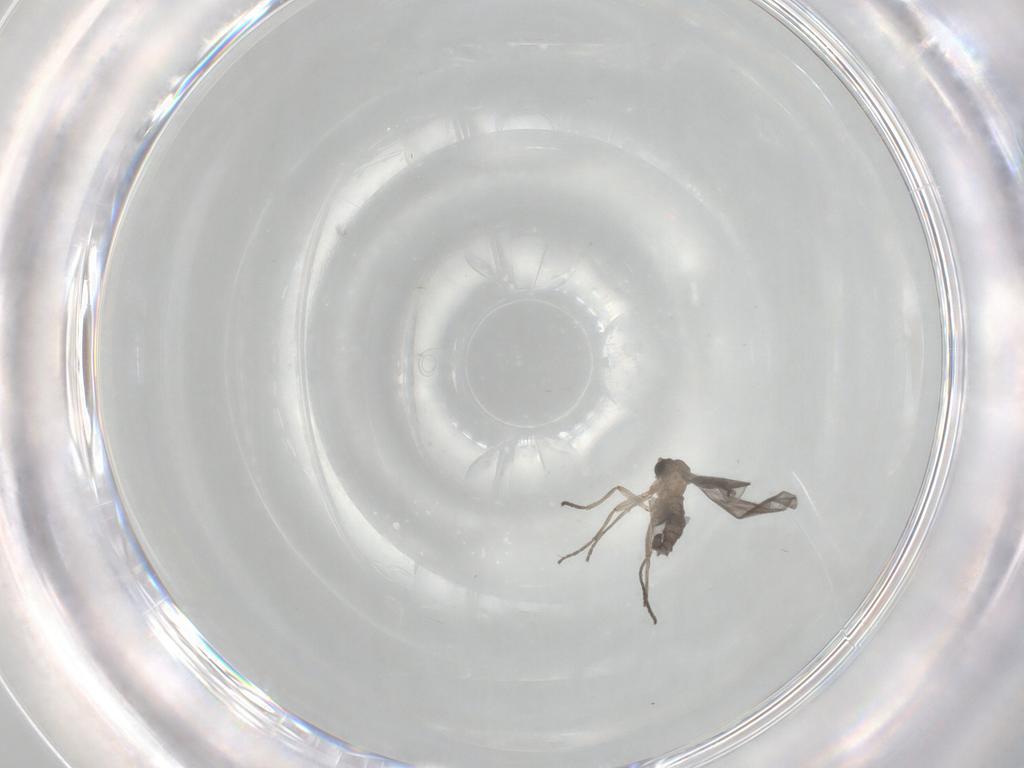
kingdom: Animalia
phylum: Arthropoda
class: Insecta
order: Diptera
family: Sciaridae
